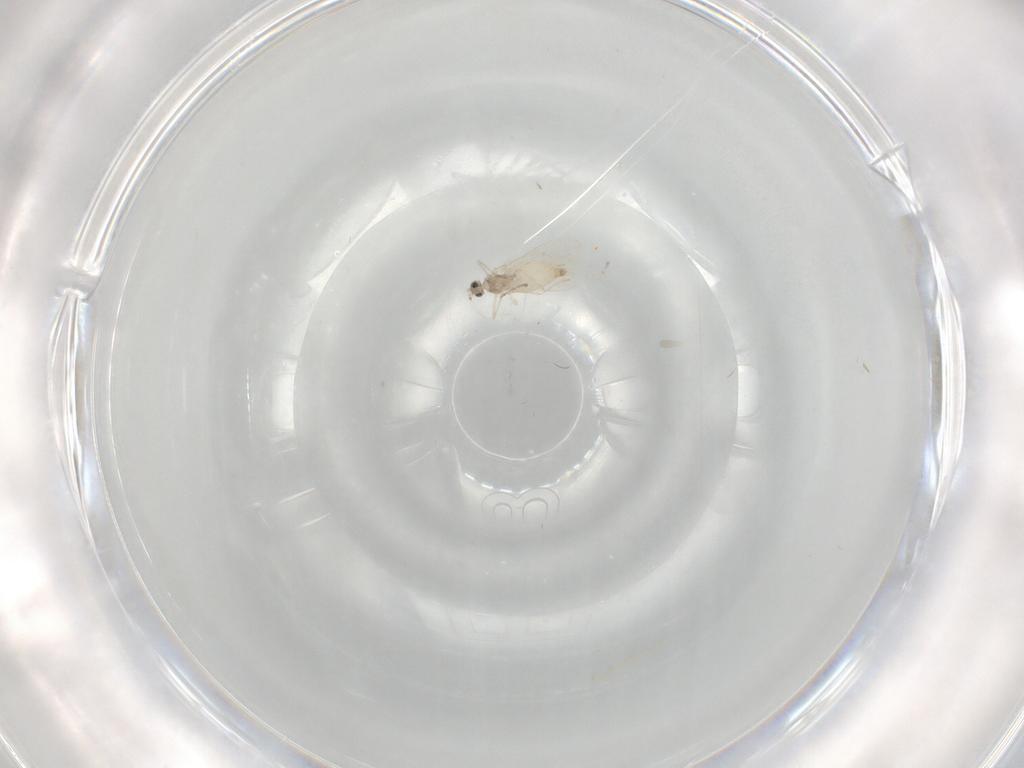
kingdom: Animalia
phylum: Arthropoda
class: Insecta
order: Diptera
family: Cecidomyiidae
